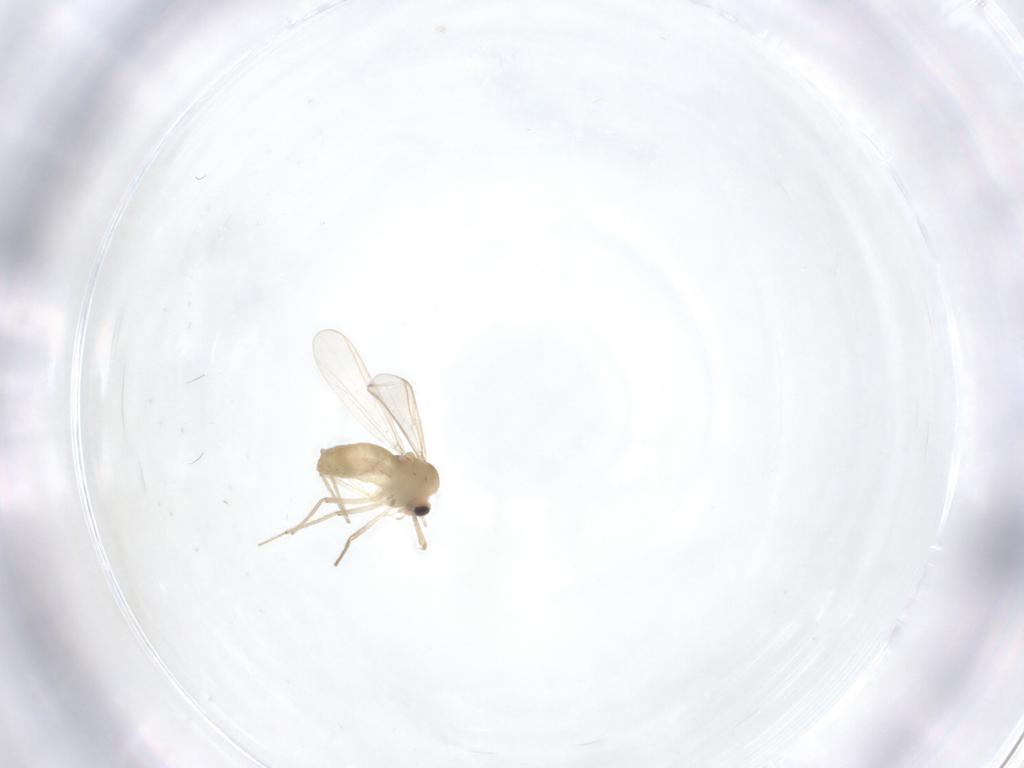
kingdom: Animalia
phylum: Arthropoda
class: Insecta
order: Diptera
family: Chironomidae
